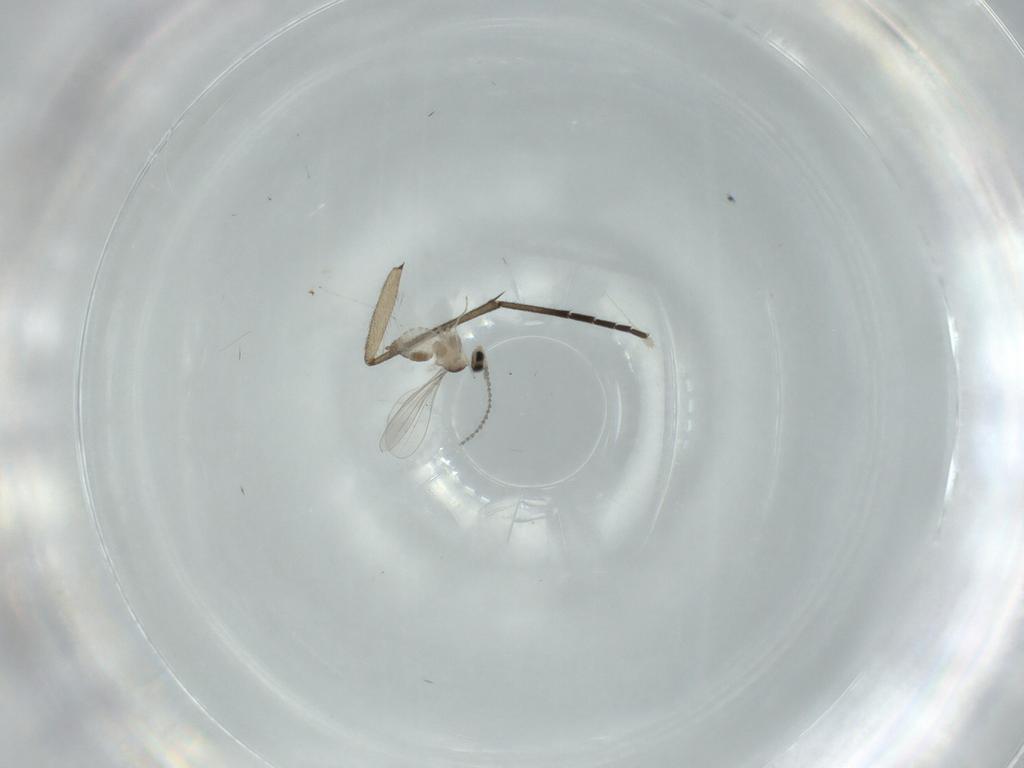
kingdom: Animalia
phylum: Arthropoda
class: Insecta
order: Diptera
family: Cecidomyiidae
